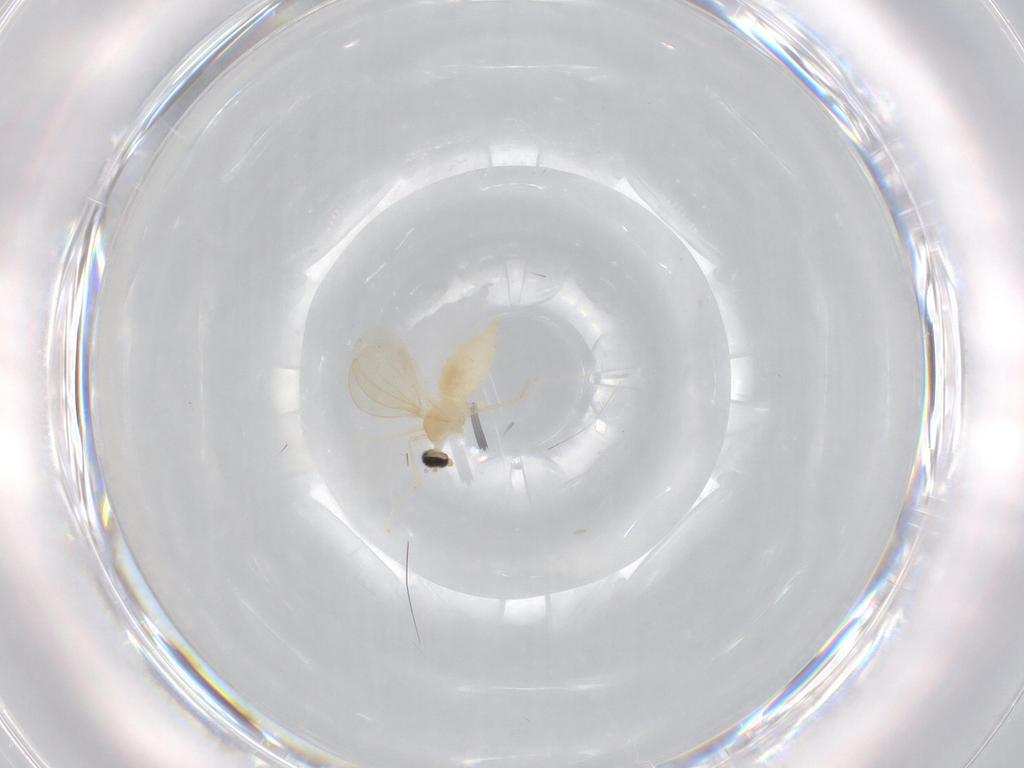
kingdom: Animalia
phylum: Arthropoda
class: Insecta
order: Diptera
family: Cecidomyiidae
